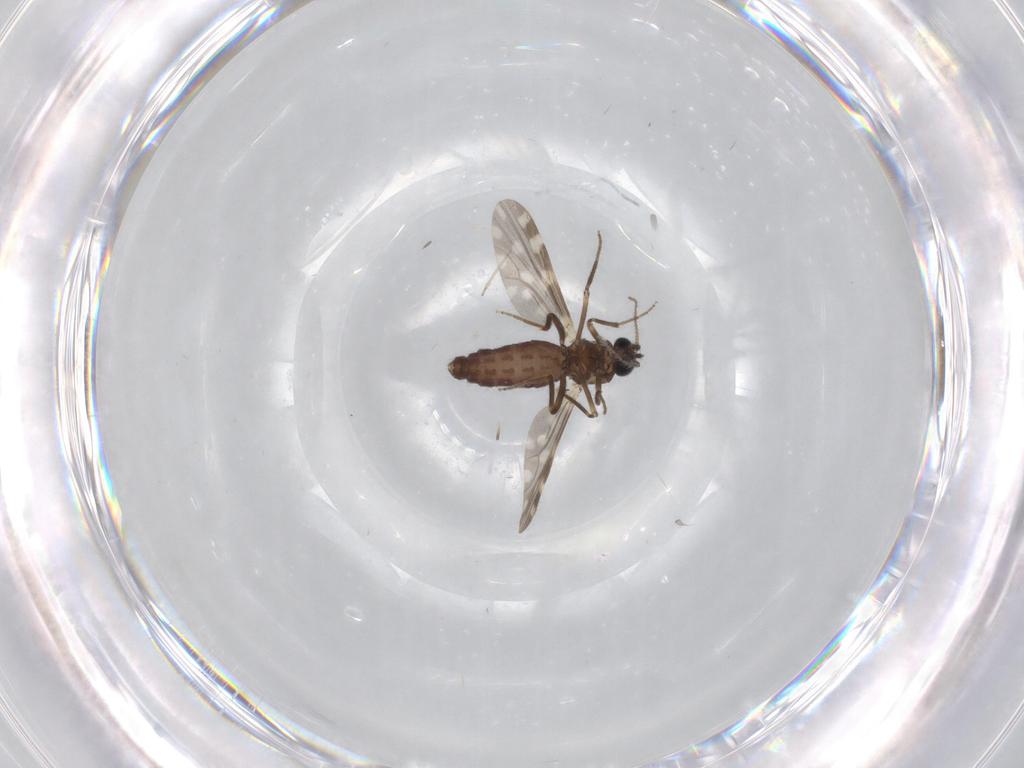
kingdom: Animalia
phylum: Arthropoda
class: Insecta
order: Diptera
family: Ceratopogonidae
